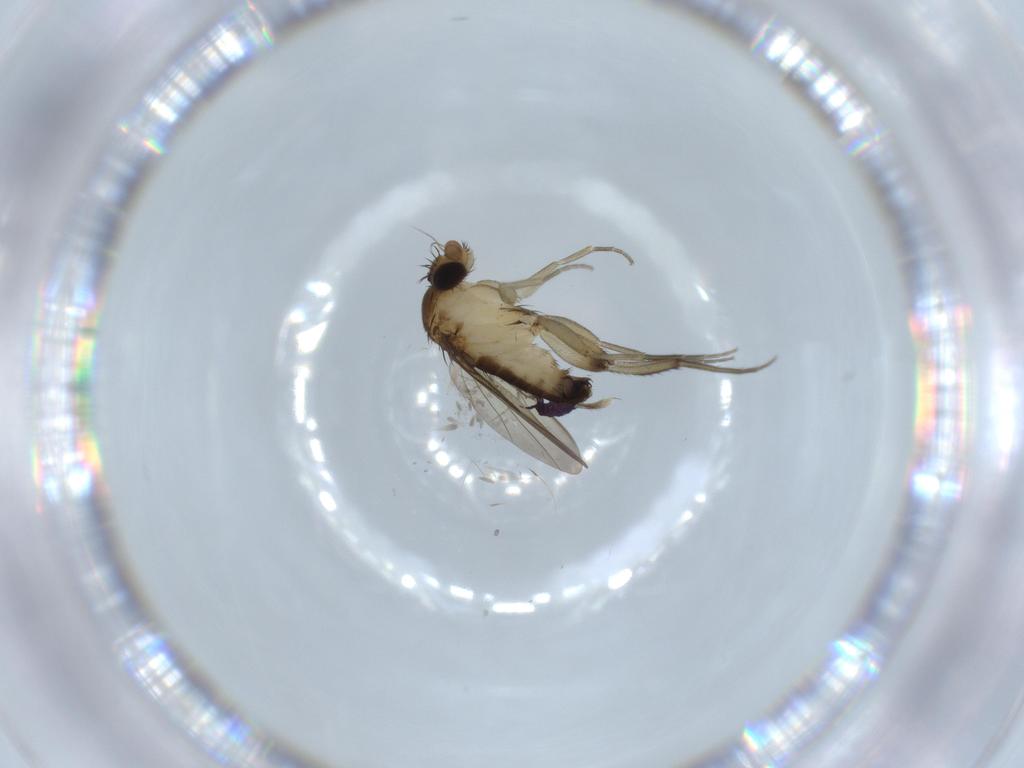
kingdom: Animalia
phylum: Arthropoda
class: Insecta
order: Diptera
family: Phoridae
